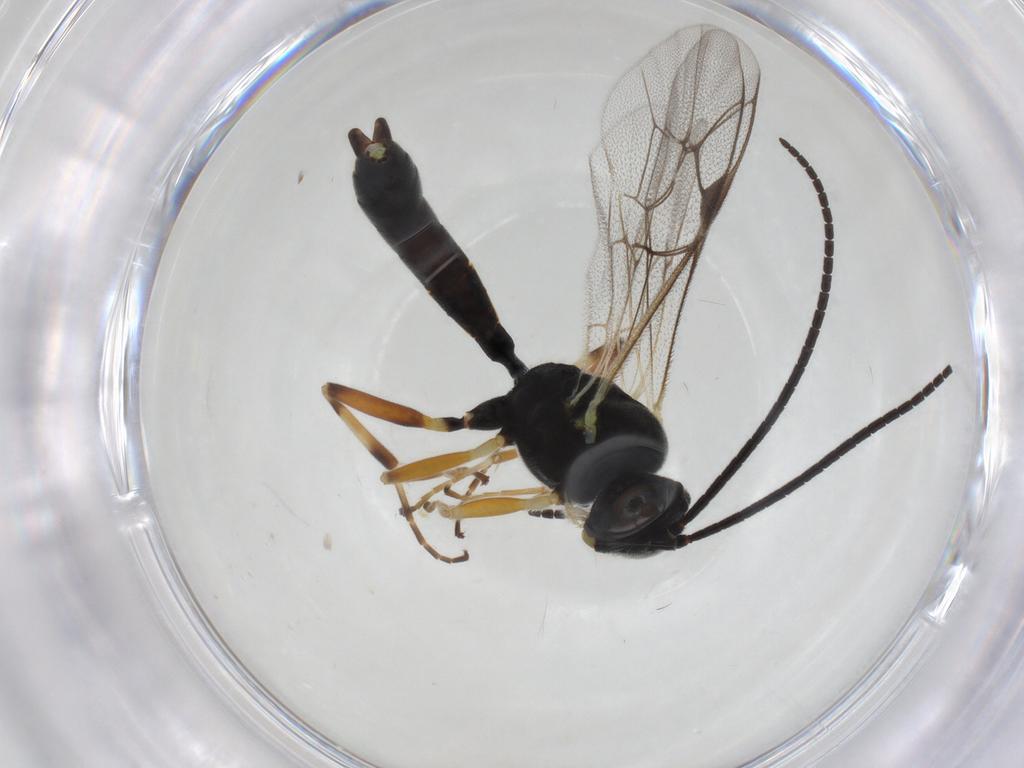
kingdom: Animalia
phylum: Arthropoda
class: Insecta
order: Hymenoptera
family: Ichneumonidae
